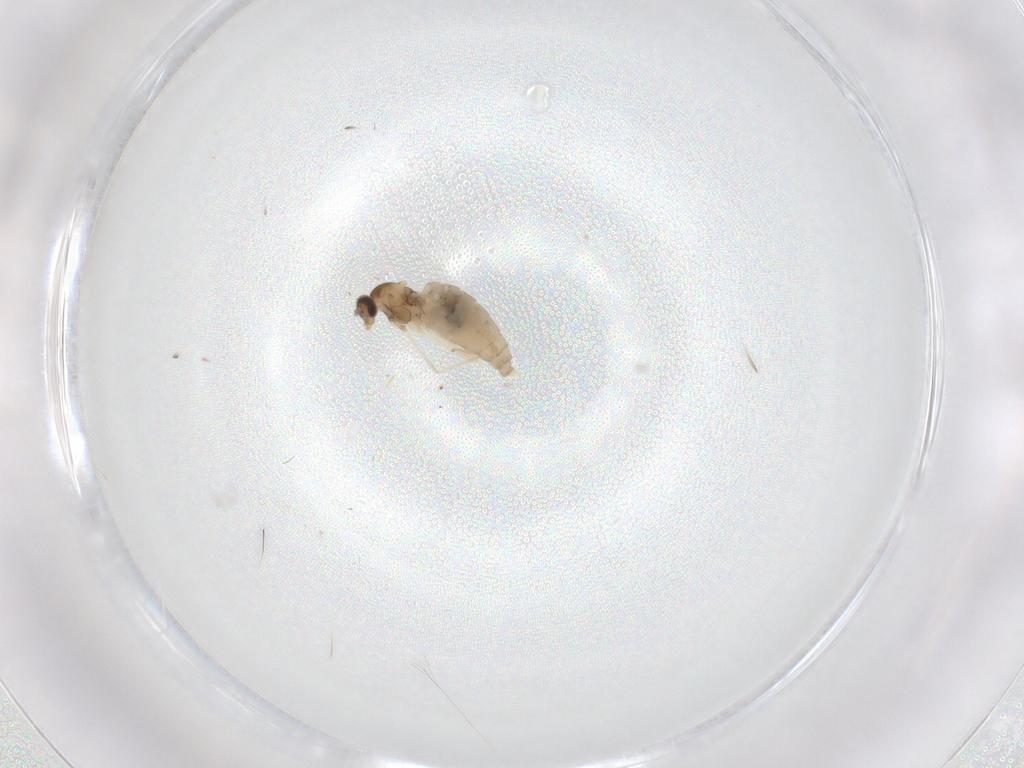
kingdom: Animalia
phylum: Arthropoda
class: Insecta
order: Diptera
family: Cecidomyiidae
